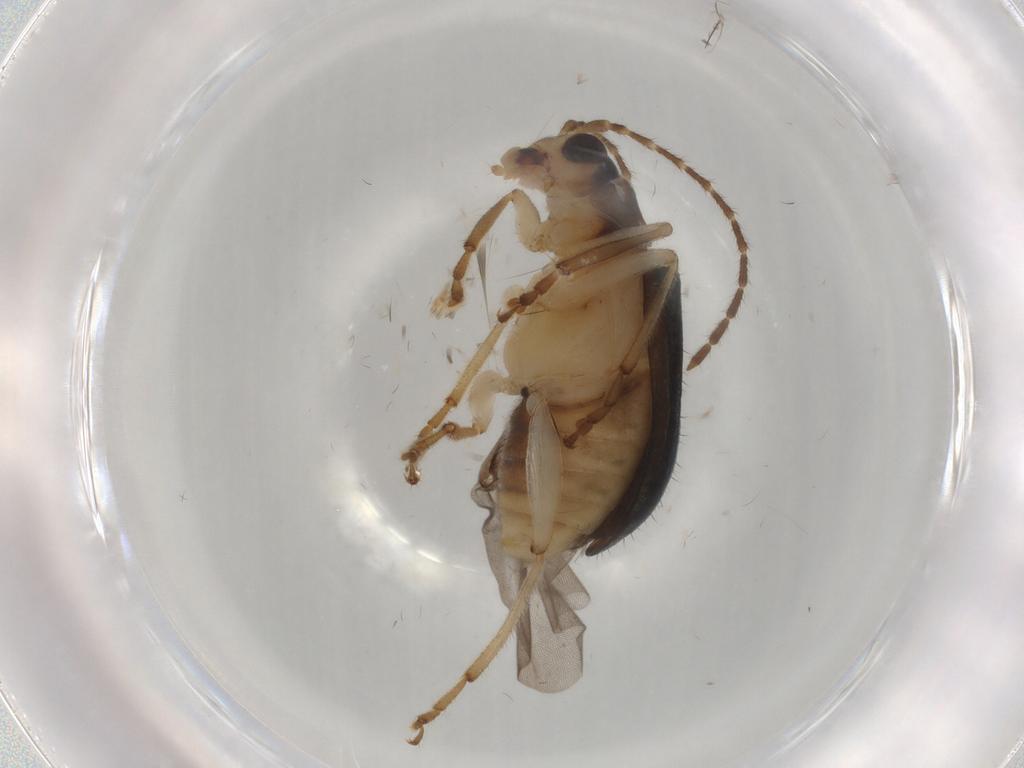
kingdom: Animalia
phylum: Arthropoda
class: Insecta
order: Coleoptera
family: Chrysomelidae
